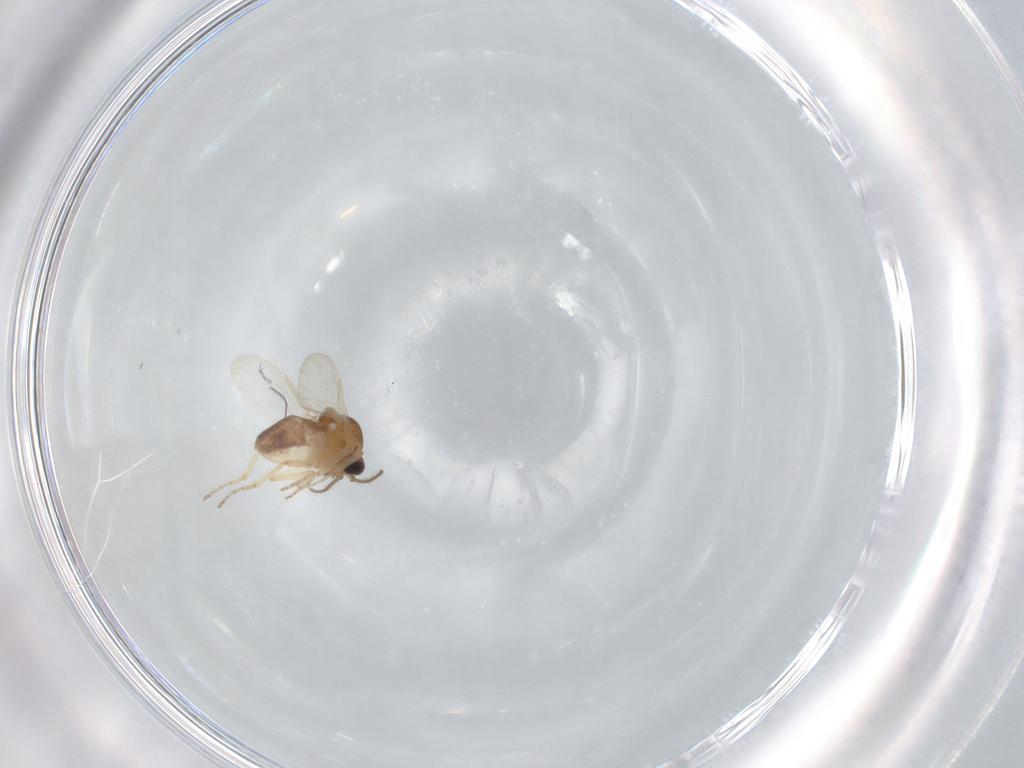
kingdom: Animalia
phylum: Arthropoda
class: Insecta
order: Diptera
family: Ceratopogonidae
